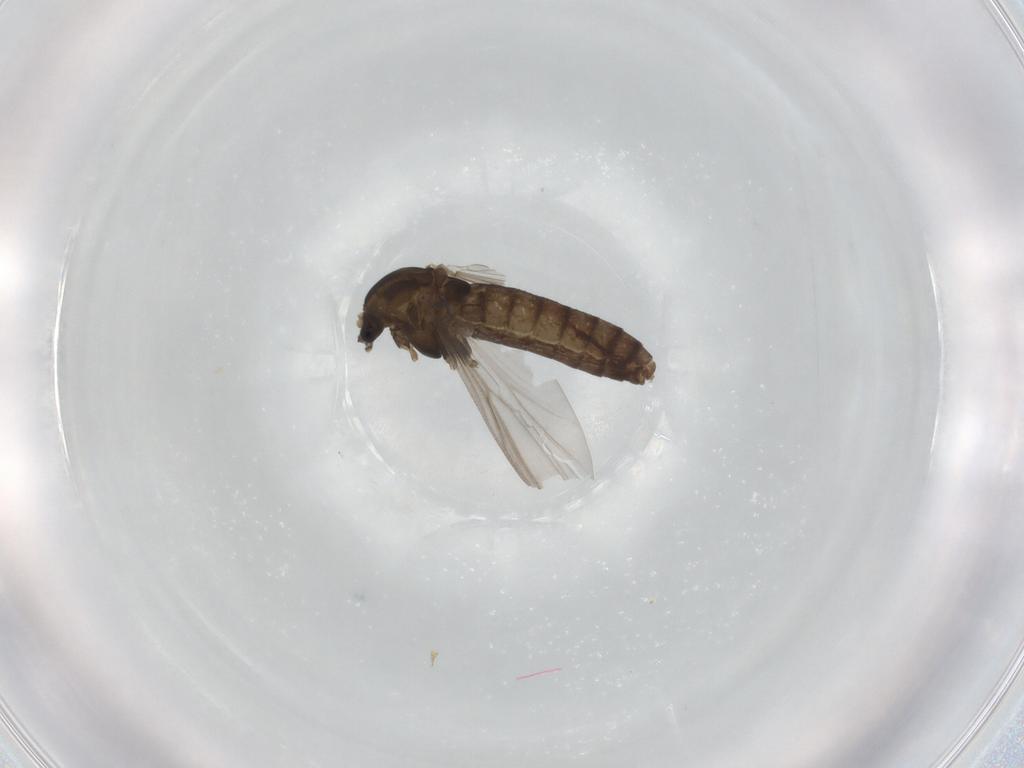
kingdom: Animalia
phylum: Arthropoda
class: Insecta
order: Diptera
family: Chironomidae
